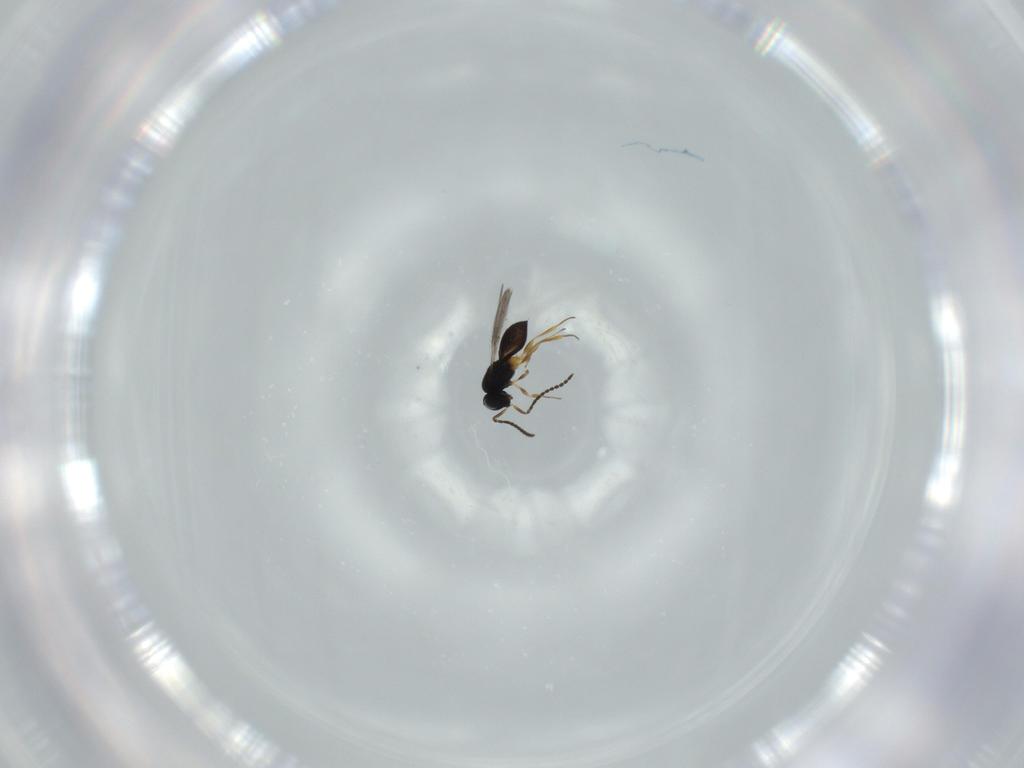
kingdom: Animalia
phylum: Arthropoda
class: Insecta
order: Hymenoptera
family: Scelionidae
